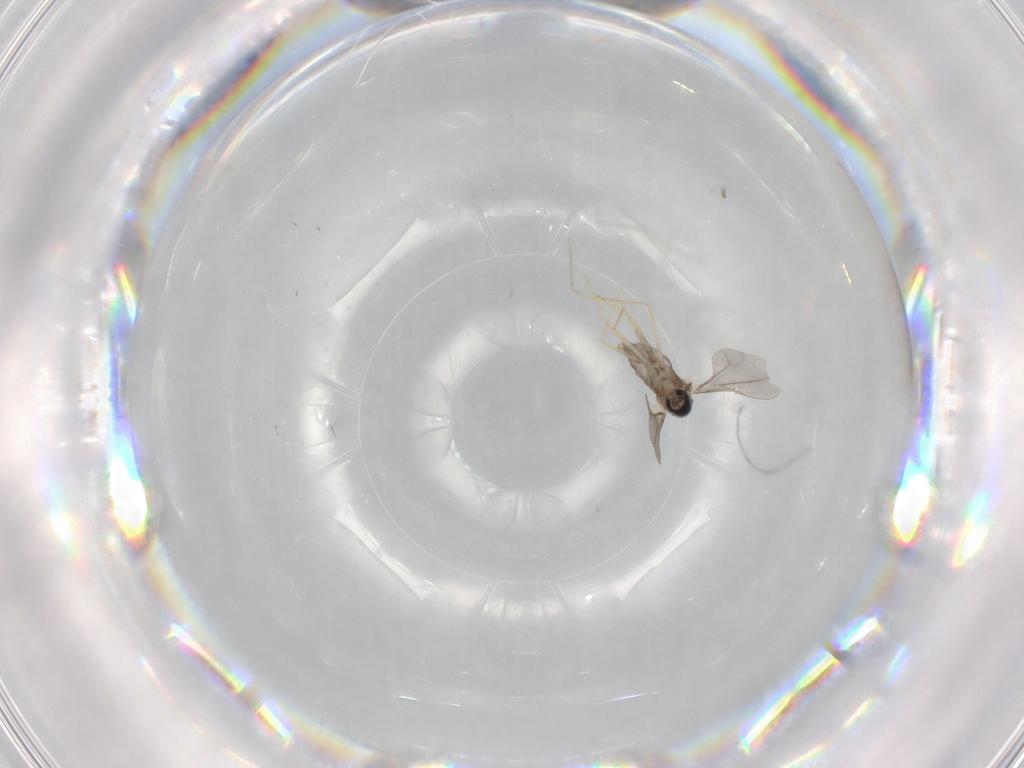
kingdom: Animalia
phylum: Arthropoda
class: Insecta
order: Diptera
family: Cecidomyiidae
